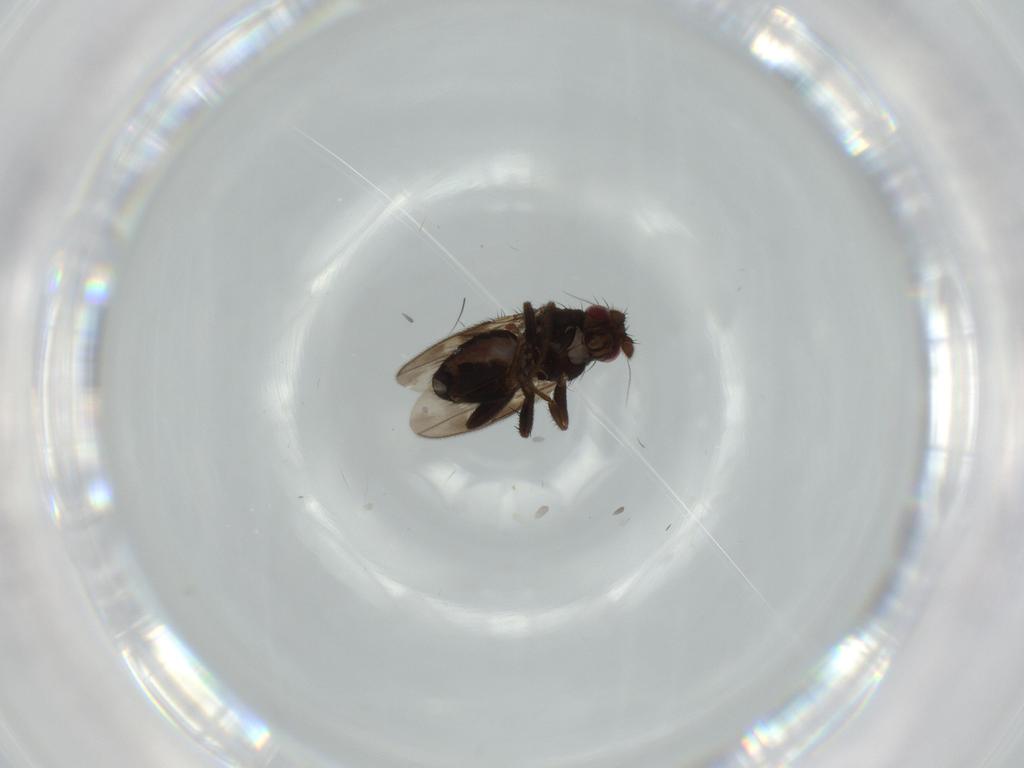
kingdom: Animalia
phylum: Arthropoda
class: Insecta
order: Diptera
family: Sphaeroceridae
